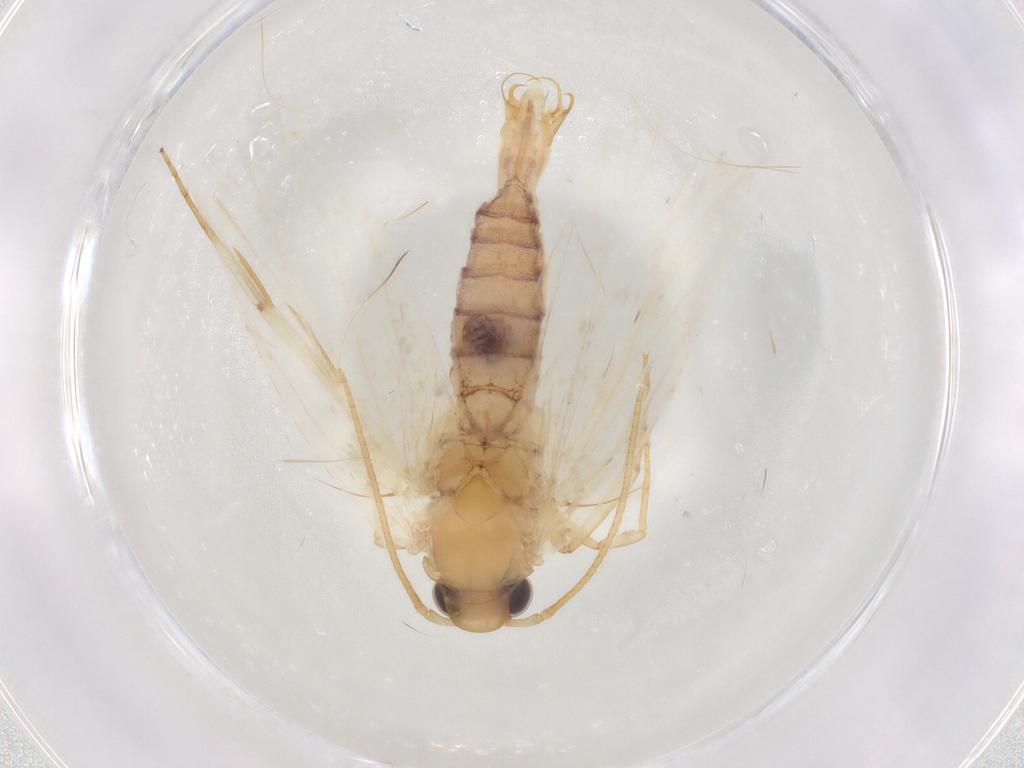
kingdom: Animalia
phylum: Arthropoda
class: Insecta
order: Lepidoptera
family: Depressariidae
